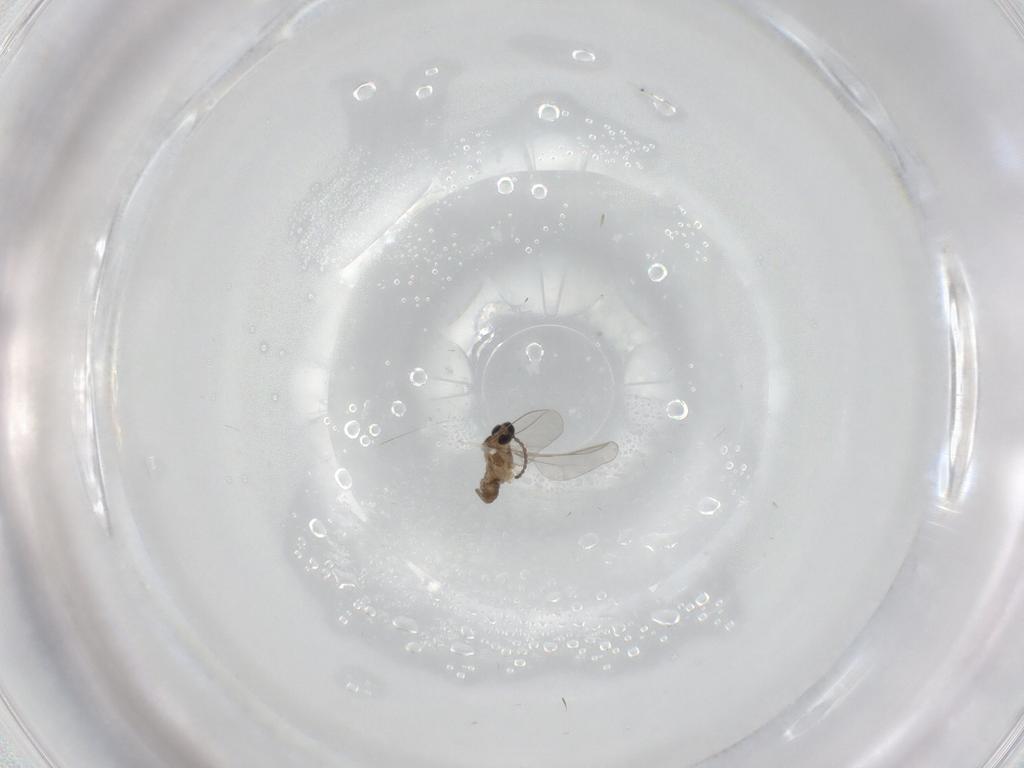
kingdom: Animalia
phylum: Arthropoda
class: Insecta
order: Diptera
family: Cecidomyiidae
